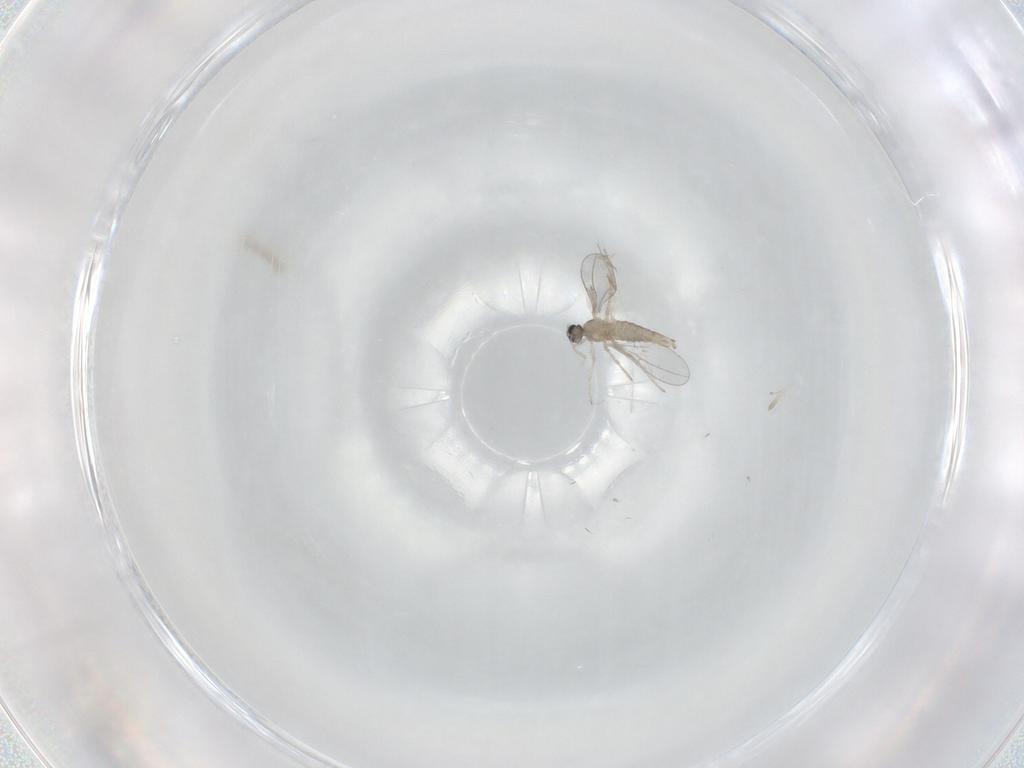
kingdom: Animalia
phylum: Arthropoda
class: Insecta
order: Diptera
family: Cecidomyiidae
